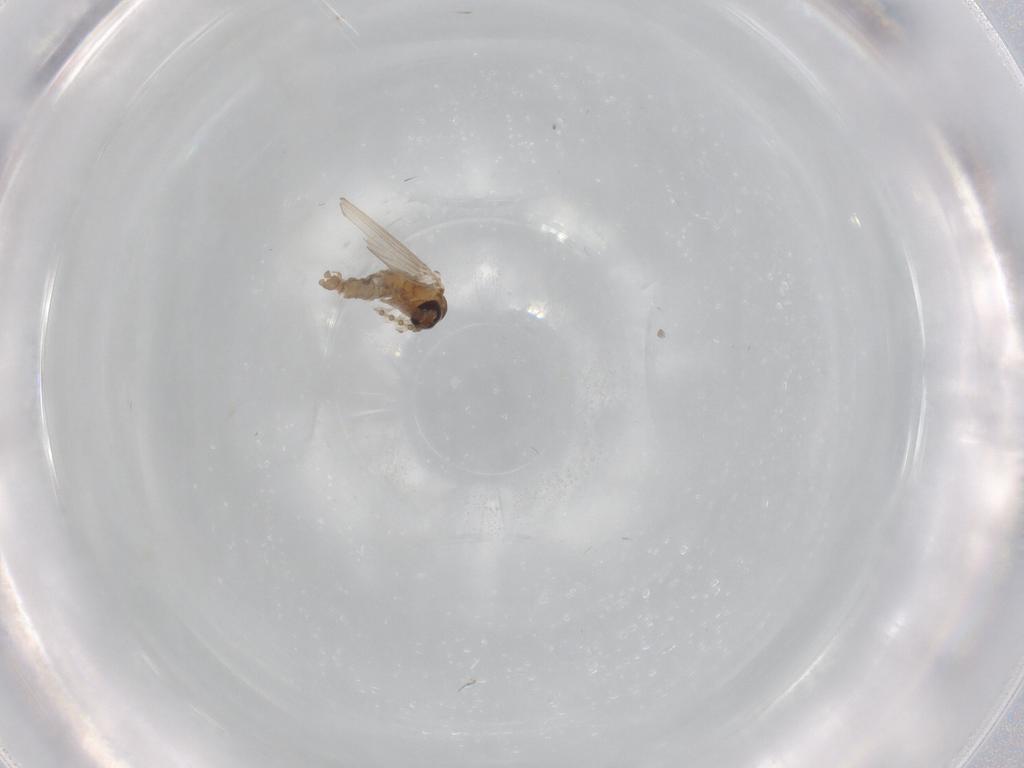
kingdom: Animalia
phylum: Arthropoda
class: Insecta
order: Diptera
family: Psychodidae
